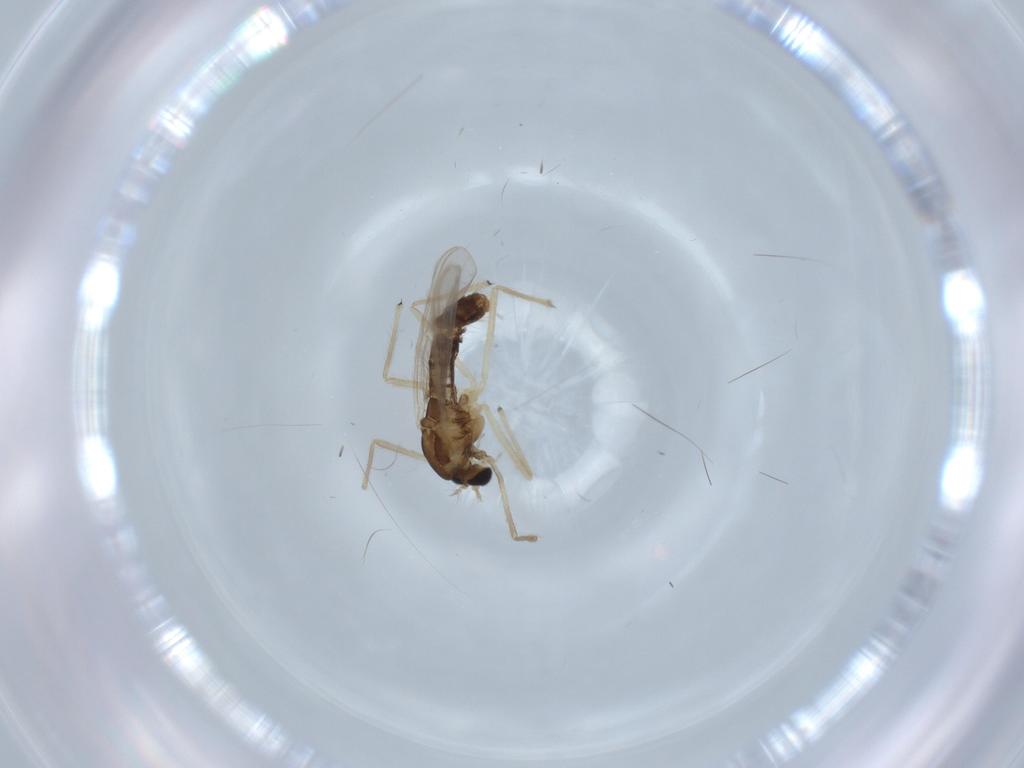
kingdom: Animalia
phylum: Arthropoda
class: Insecta
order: Diptera
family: Chironomidae
